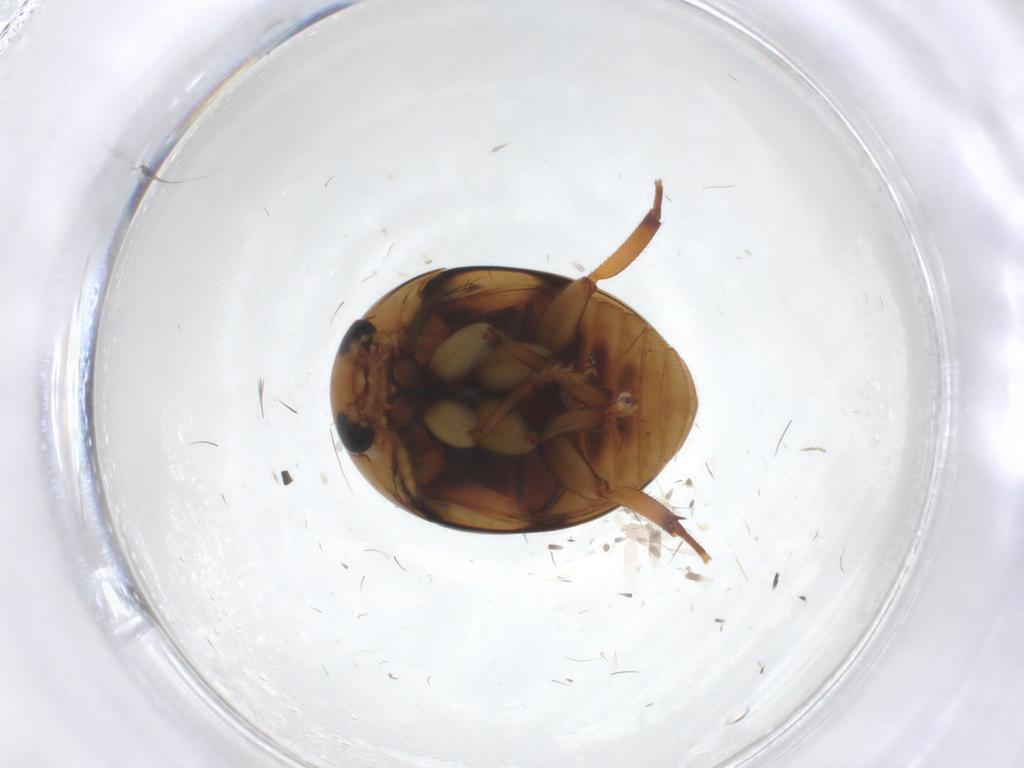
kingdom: Animalia
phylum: Arthropoda
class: Insecta
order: Coleoptera
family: Phalacridae
